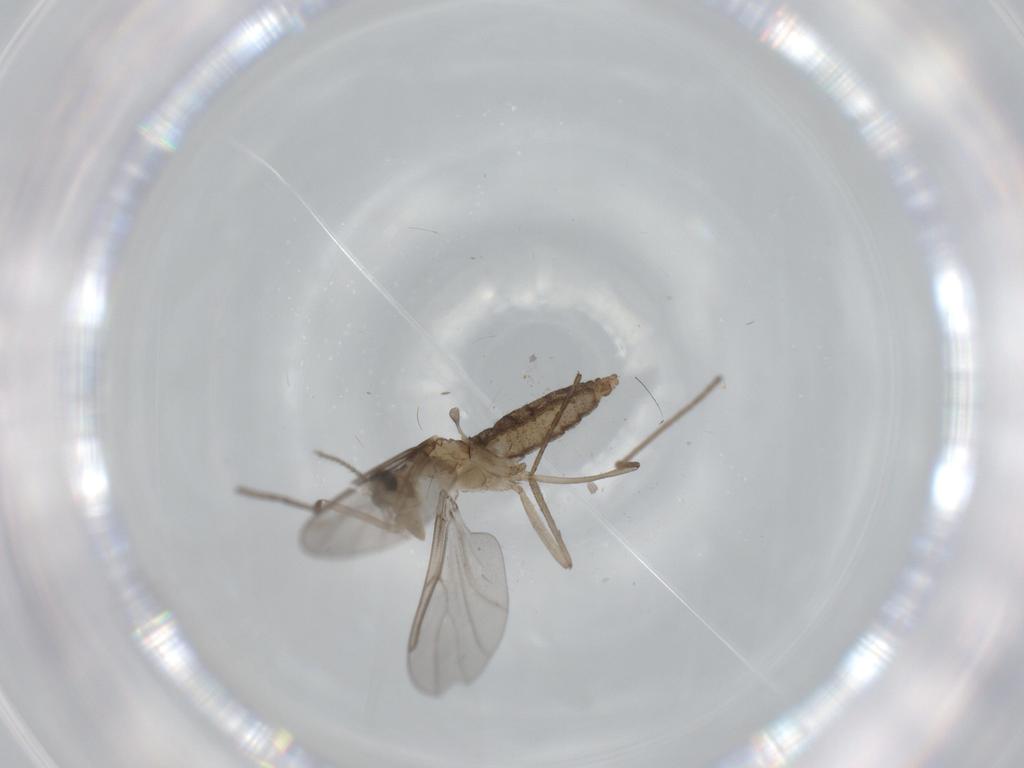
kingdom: Animalia
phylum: Arthropoda
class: Insecta
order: Diptera
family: Cecidomyiidae
